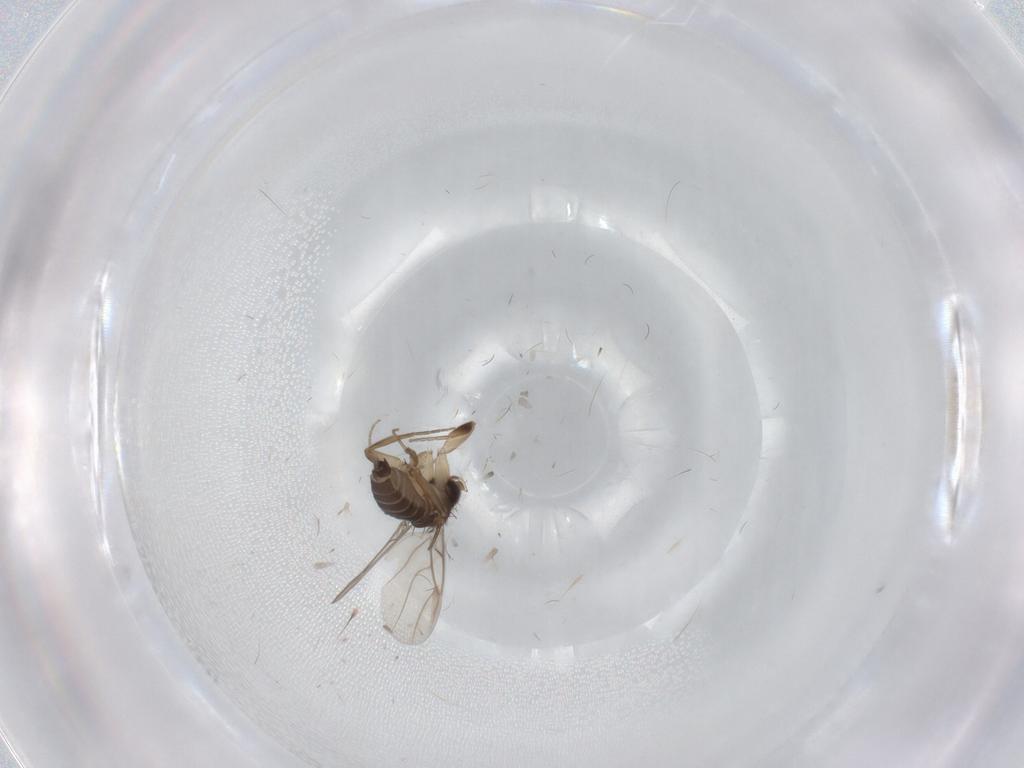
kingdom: Animalia
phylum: Arthropoda
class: Insecta
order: Diptera
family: Phoridae
